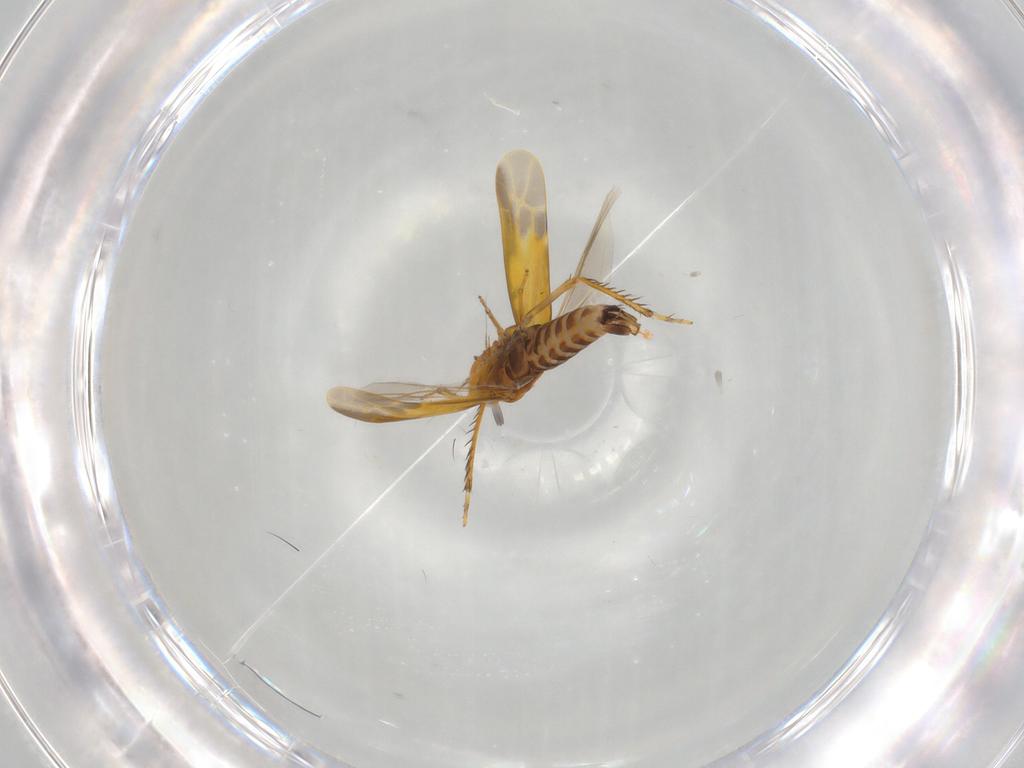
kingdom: Animalia
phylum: Arthropoda
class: Insecta
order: Hemiptera
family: Cicadellidae
